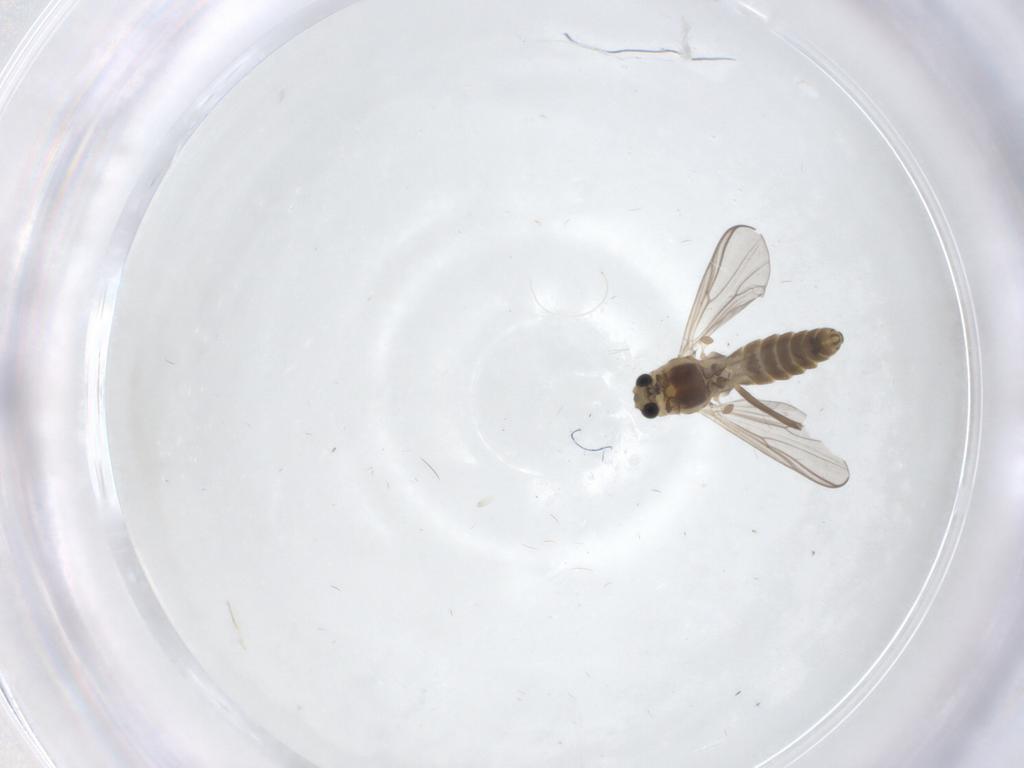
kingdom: Animalia
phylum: Arthropoda
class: Insecta
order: Diptera
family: Chironomidae
